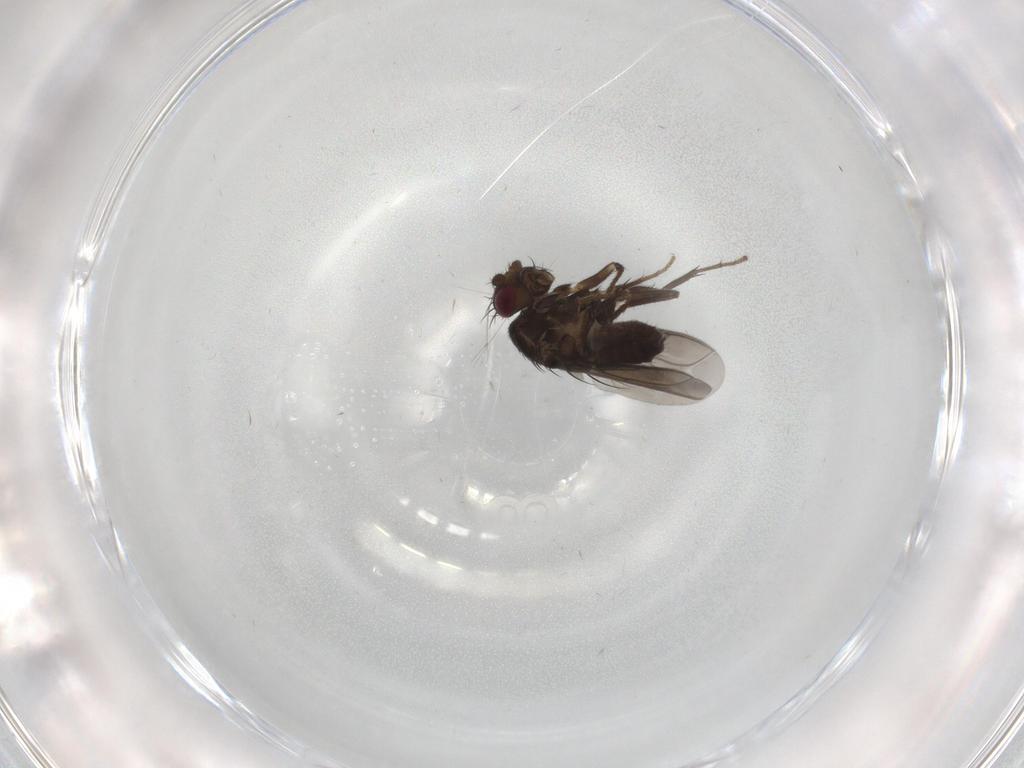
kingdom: Animalia
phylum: Arthropoda
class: Insecta
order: Diptera
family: Sphaeroceridae
